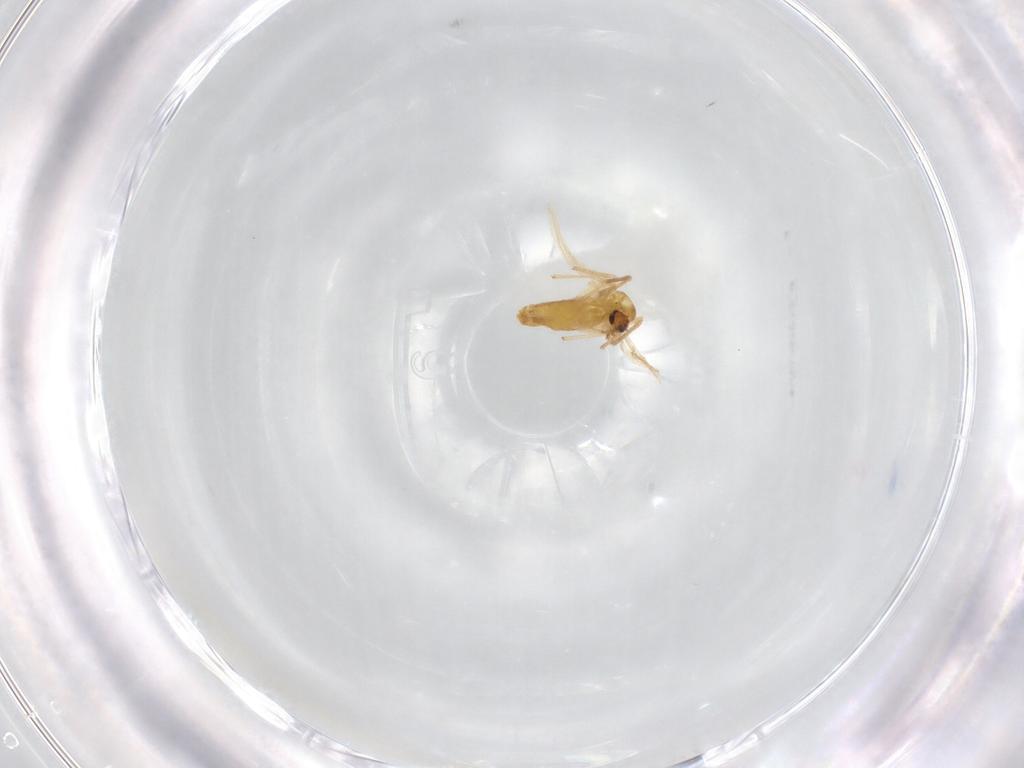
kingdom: Animalia
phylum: Arthropoda
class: Insecta
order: Diptera
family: Chironomidae
